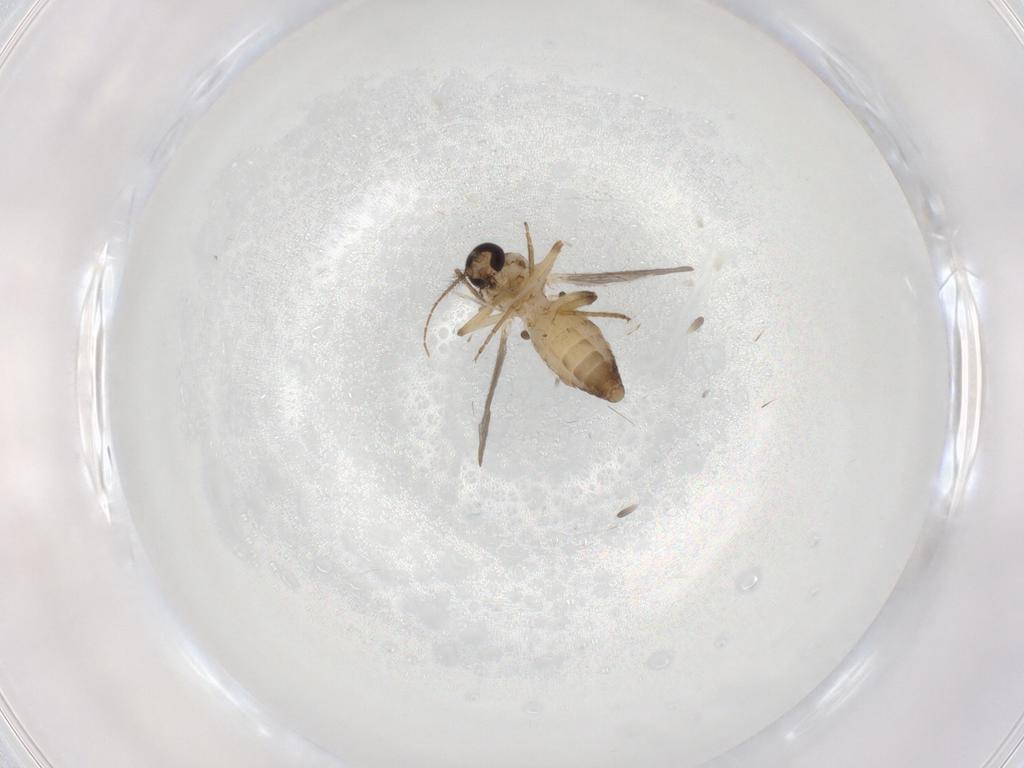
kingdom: Animalia
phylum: Arthropoda
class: Insecta
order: Diptera
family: Ceratopogonidae
